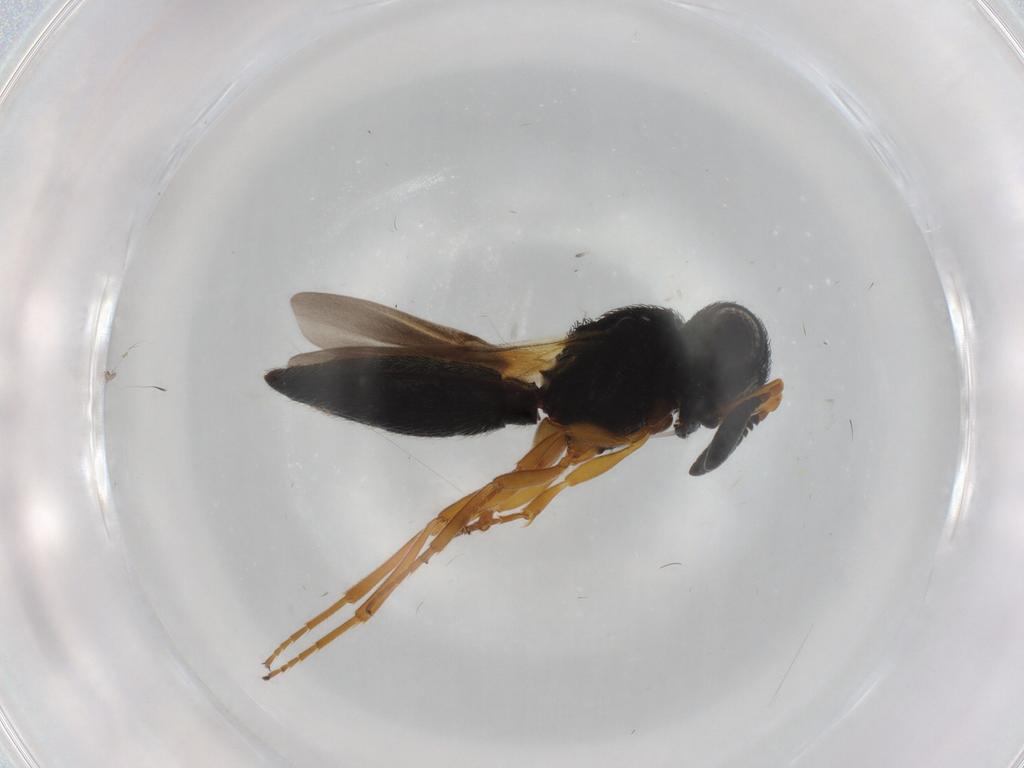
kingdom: Animalia
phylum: Arthropoda
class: Insecta
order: Hymenoptera
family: Scelionidae
